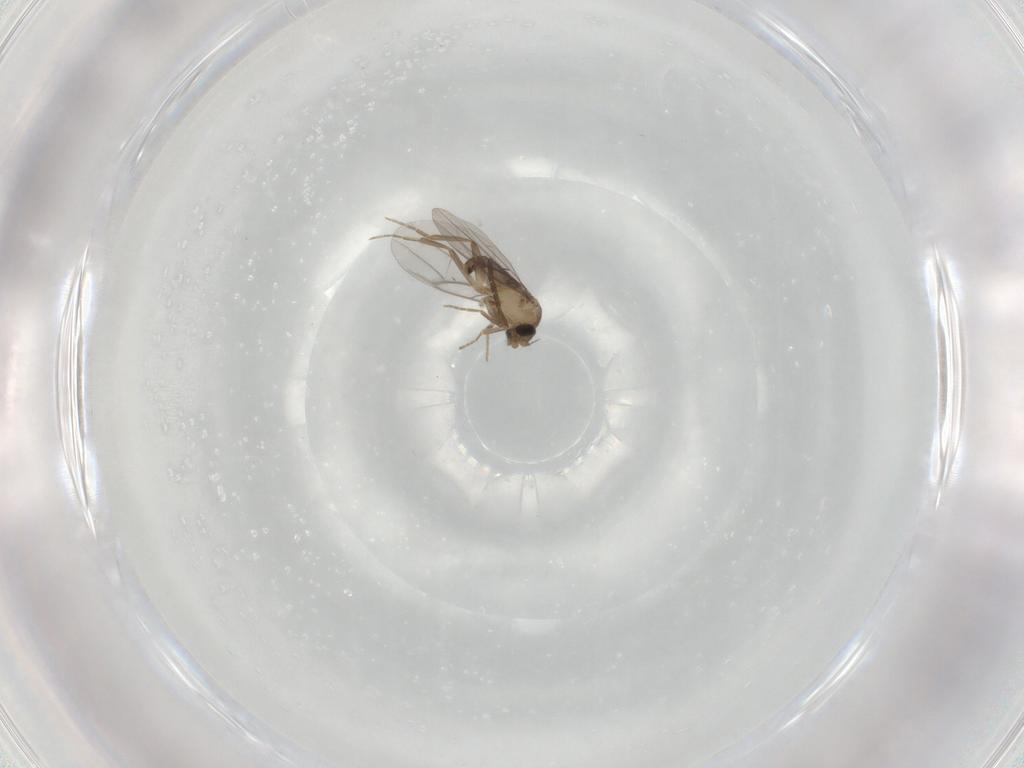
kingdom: Animalia
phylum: Arthropoda
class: Insecta
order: Diptera
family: Phoridae
